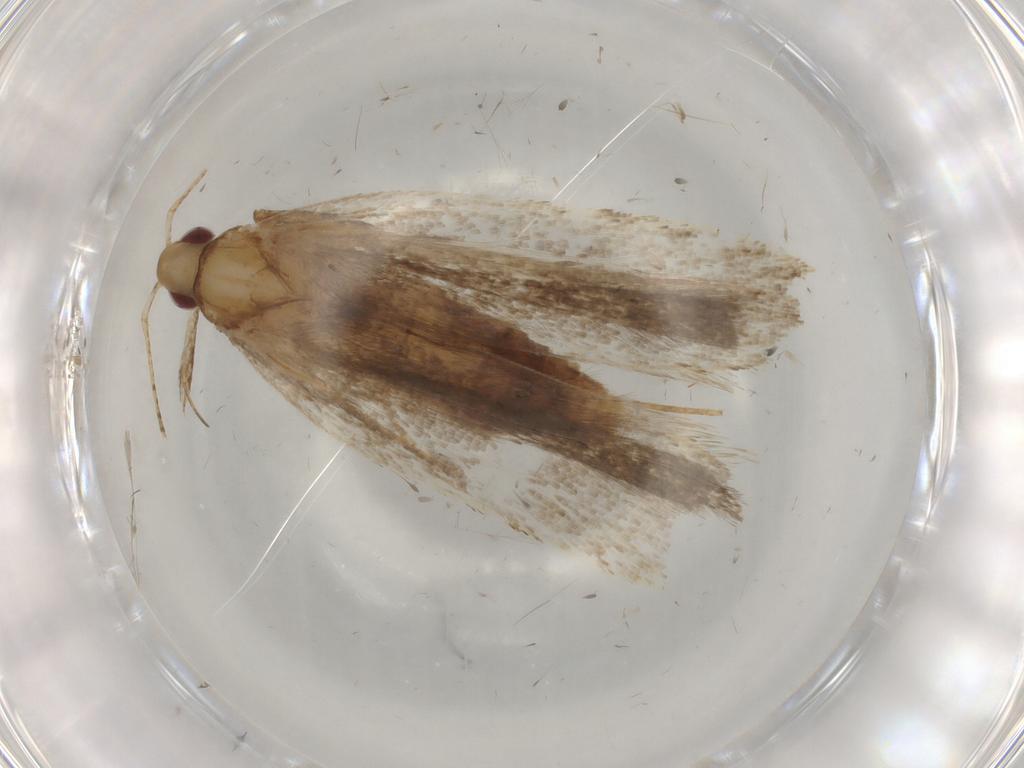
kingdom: Animalia
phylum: Arthropoda
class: Insecta
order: Lepidoptera
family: Gelechiidae
